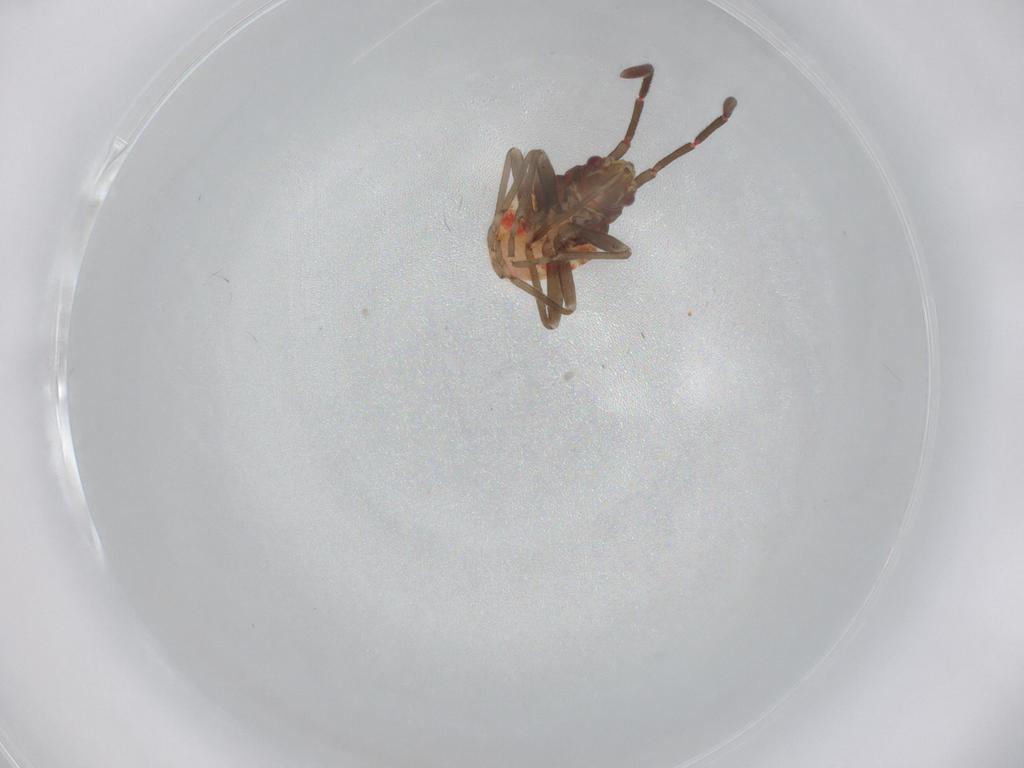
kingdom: Animalia
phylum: Arthropoda
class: Insecta
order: Hemiptera
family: Rhyparochromidae
